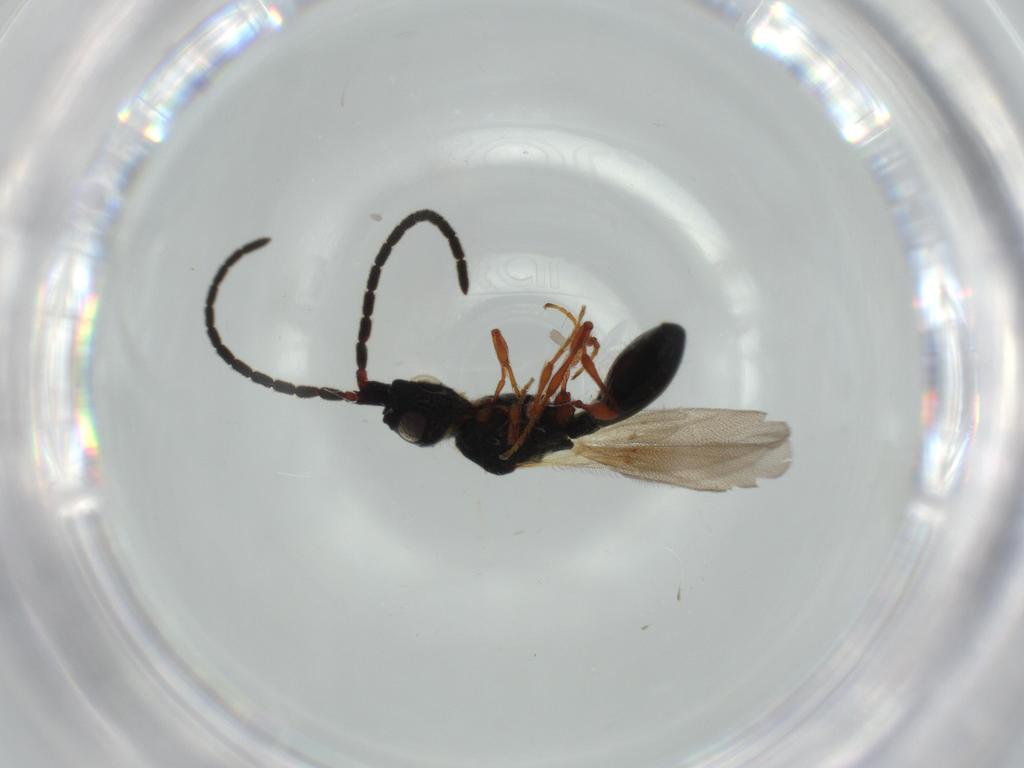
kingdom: Animalia
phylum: Arthropoda
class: Insecta
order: Hymenoptera
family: Diapriidae
